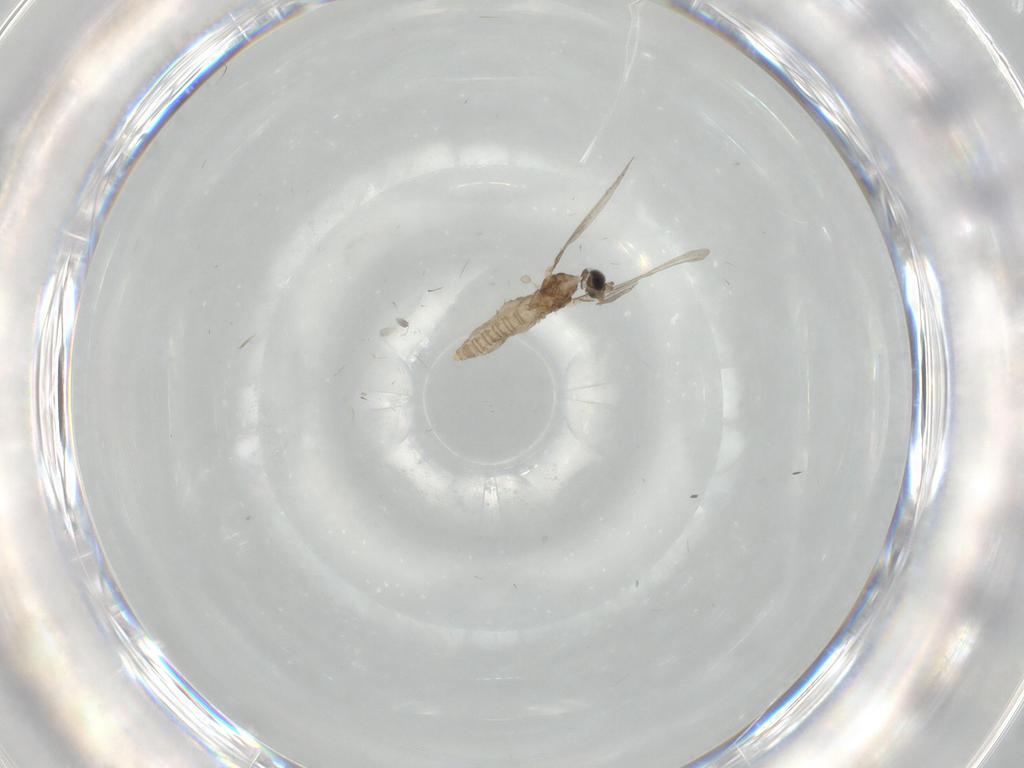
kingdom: Animalia
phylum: Arthropoda
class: Insecta
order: Diptera
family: Cecidomyiidae
